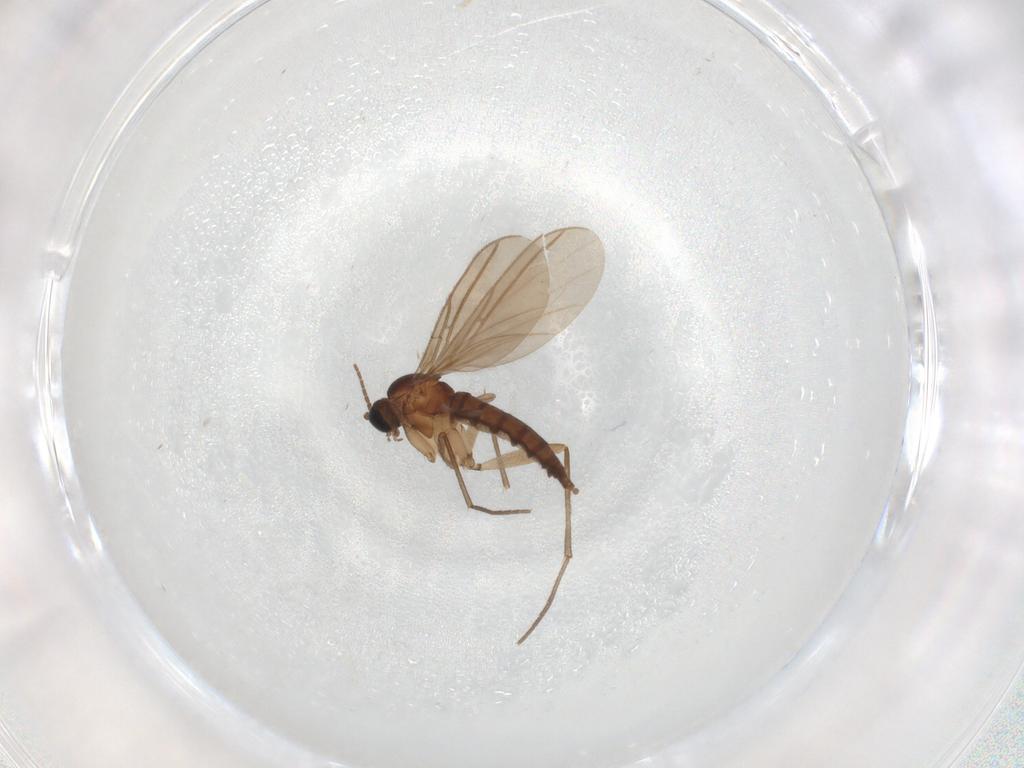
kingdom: Animalia
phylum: Arthropoda
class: Insecta
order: Diptera
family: Sciaridae
